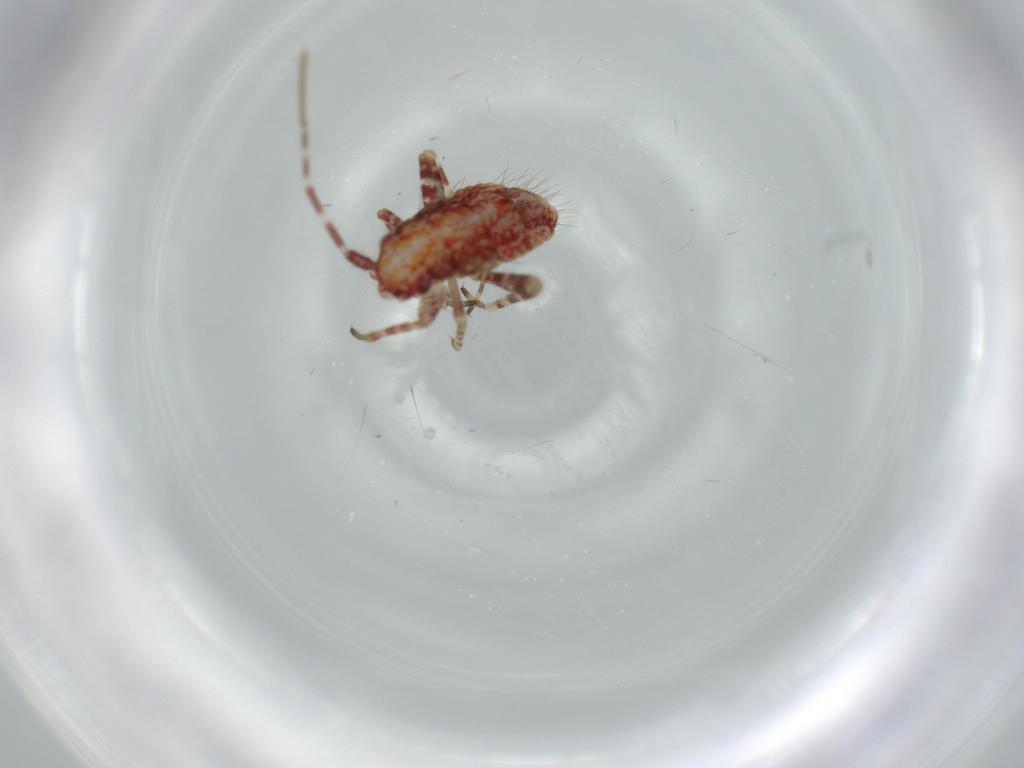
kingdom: Animalia
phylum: Arthropoda
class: Insecta
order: Hemiptera
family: Miridae
